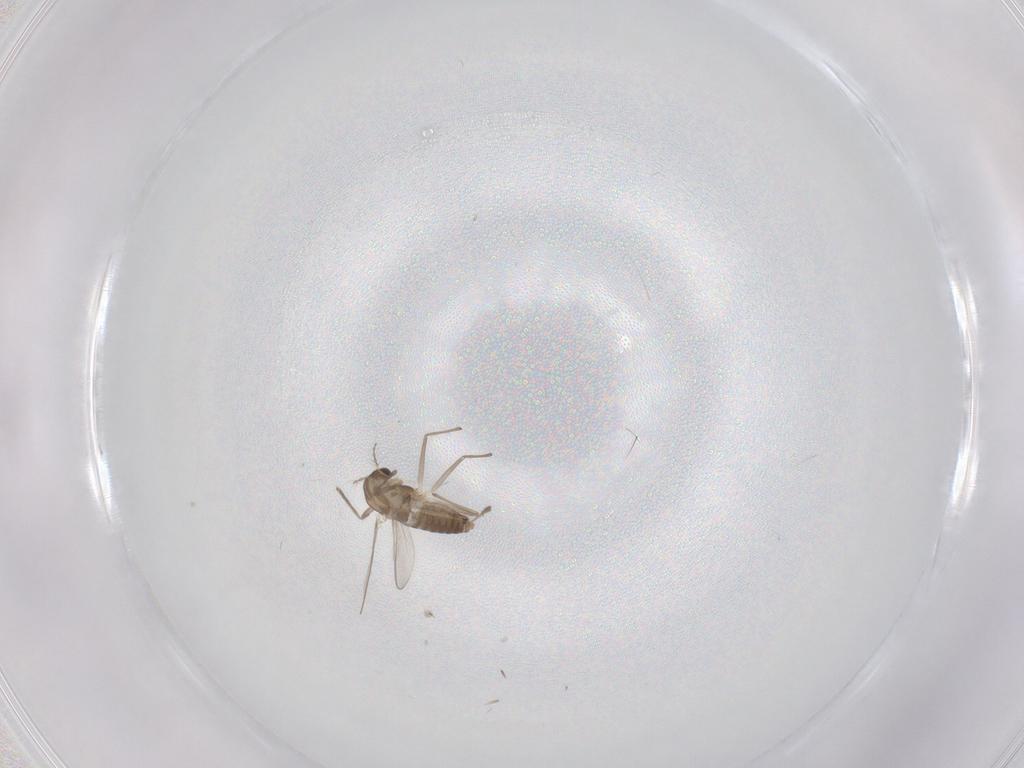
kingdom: Animalia
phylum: Arthropoda
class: Insecta
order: Diptera
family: Chironomidae
